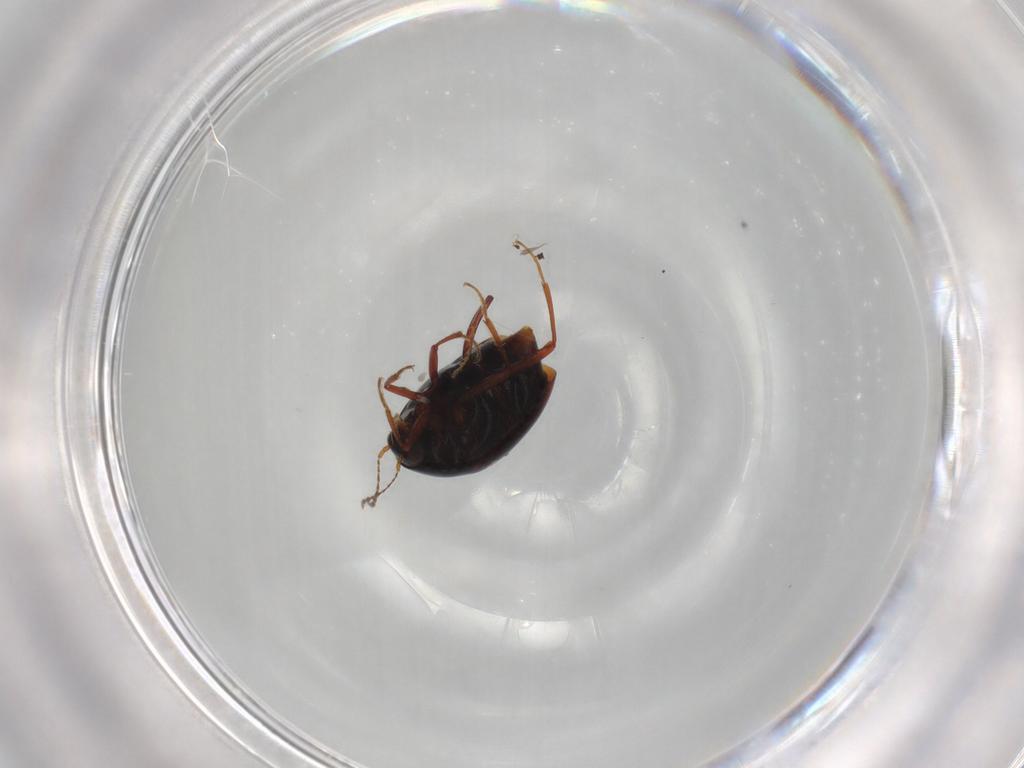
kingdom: Animalia
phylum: Arthropoda
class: Insecta
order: Coleoptera
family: Staphylinidae
